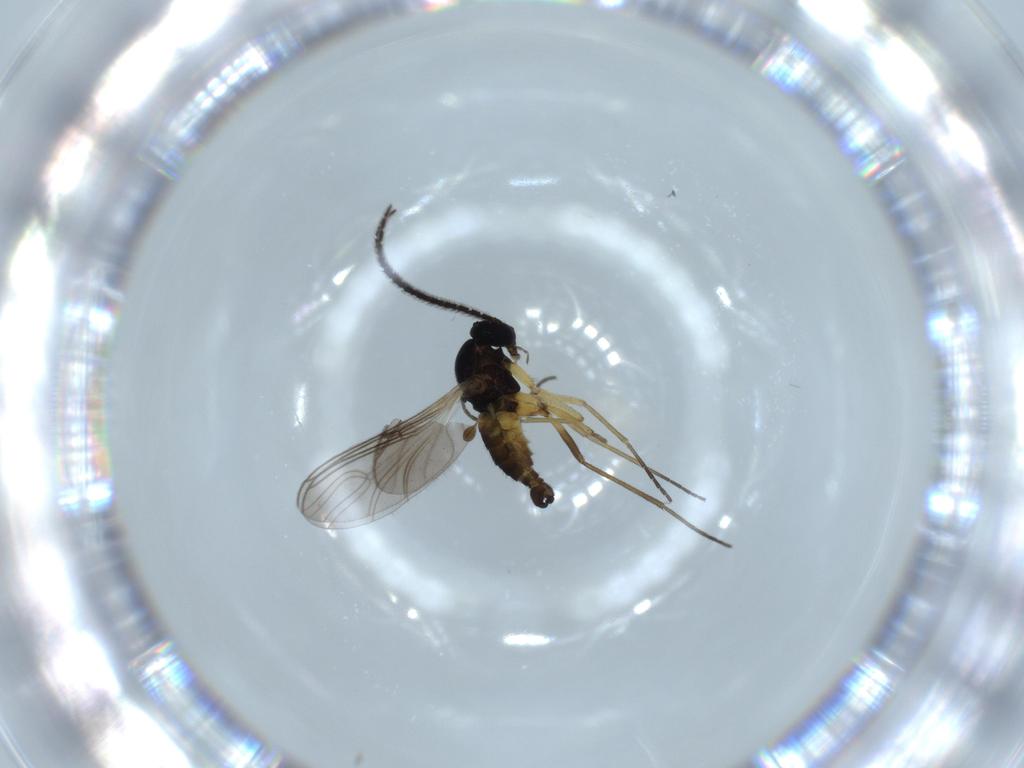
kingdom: Animalia
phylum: Arthropoda
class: Insecta
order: Diptera
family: Sciaridae
